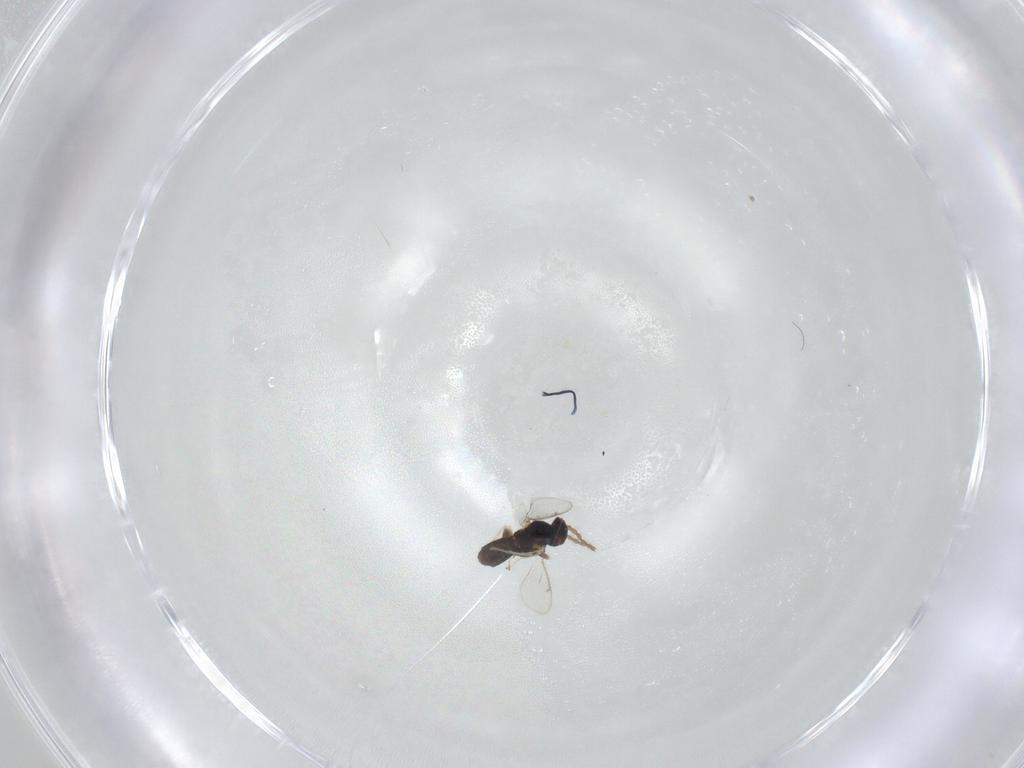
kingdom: Animalia
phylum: Arthropoda
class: Insecta
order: Hymenoptera
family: Eulophidae
